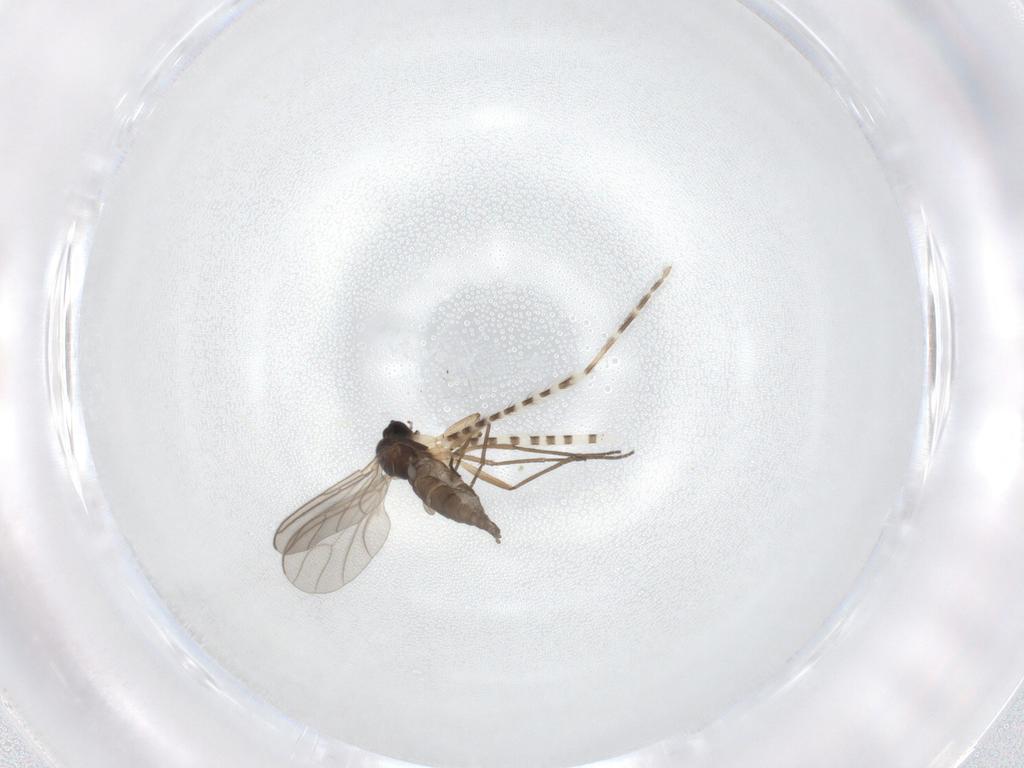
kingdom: Animalia
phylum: Arthropoda
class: Insecta
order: Diptera
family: Sciaridae
